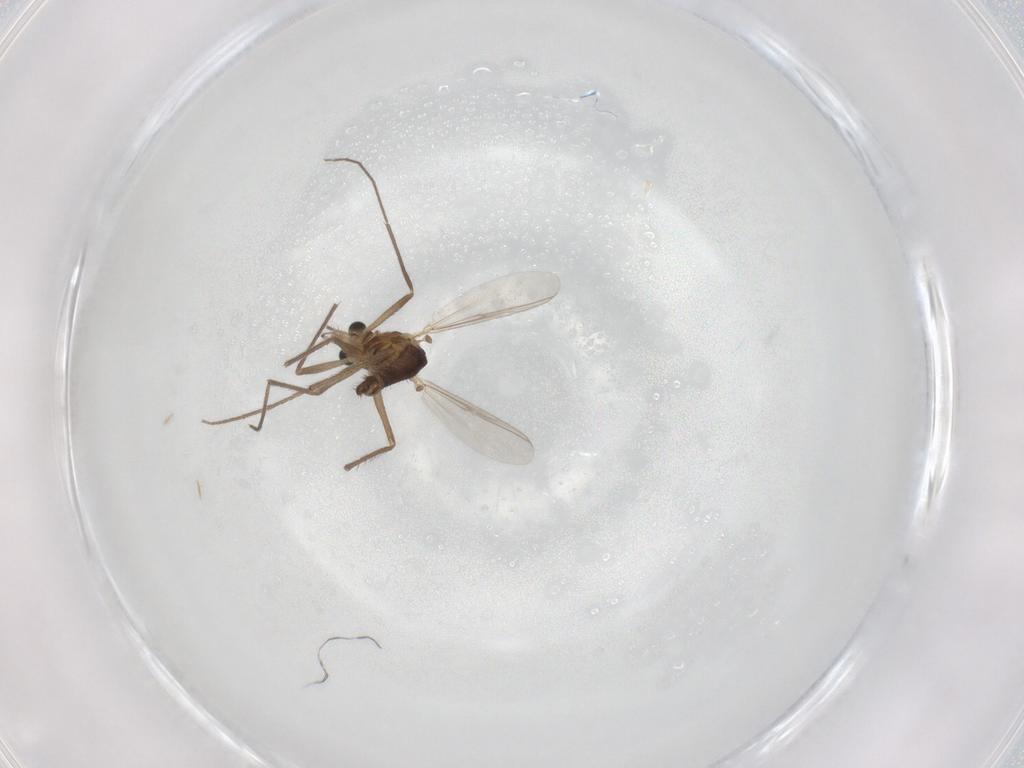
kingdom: Animalia
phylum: Arthropoda
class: Insecta
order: Diptera
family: Chironomidae
